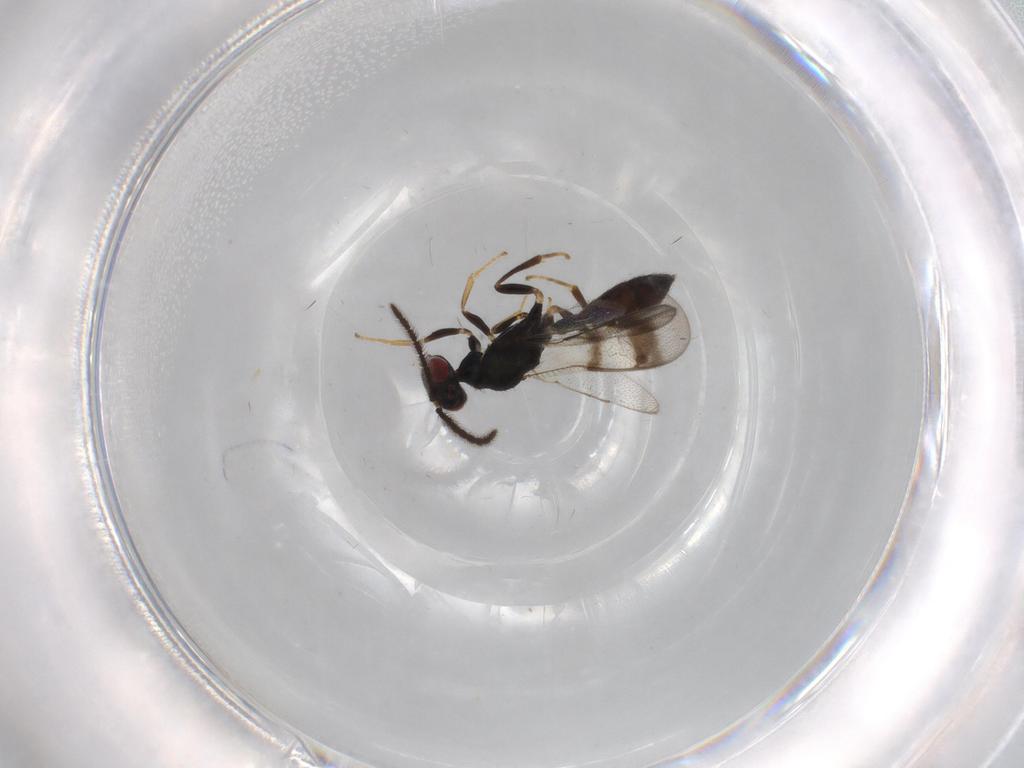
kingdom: Animalia
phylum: Arthropoda
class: Insecta
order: Hymenoptera
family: Pteromalidae
